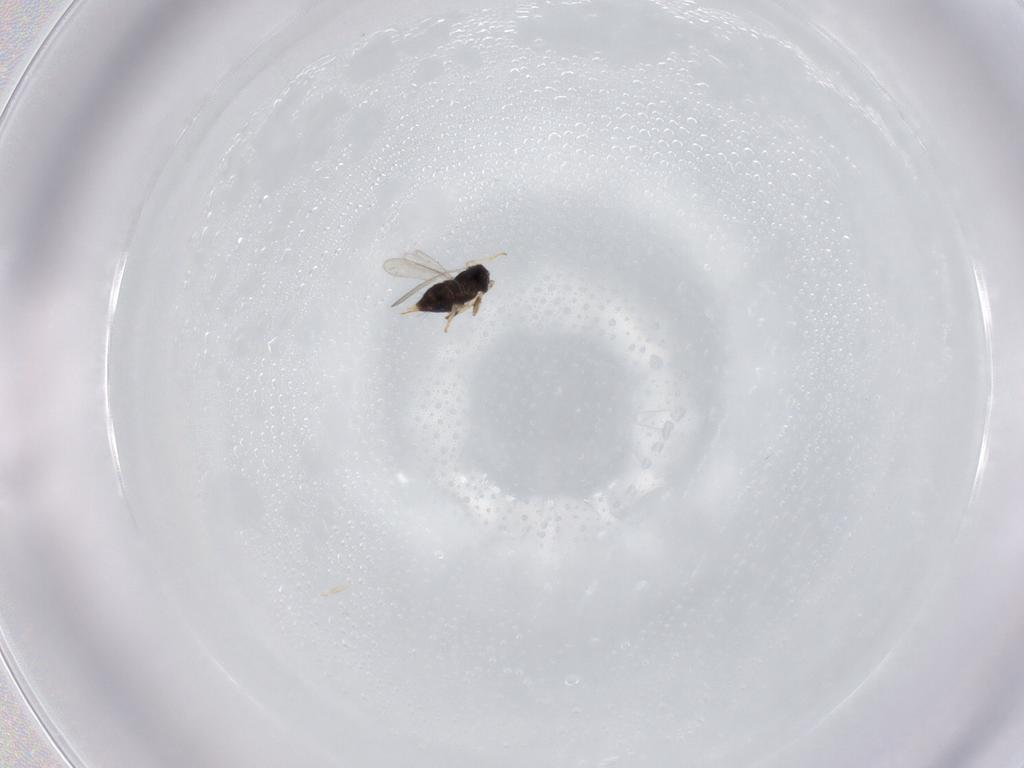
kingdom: Animalia
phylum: Arthropoda
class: Insecta
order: Hymenoptera
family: Aphelinidae
